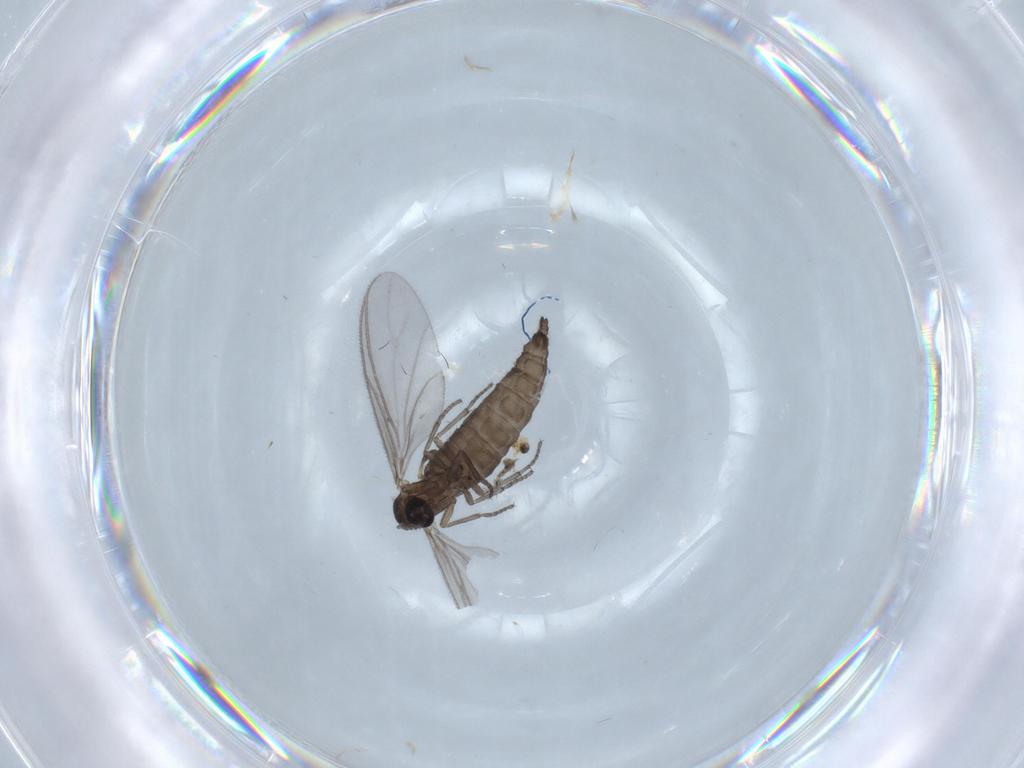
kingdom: Animalia
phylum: Arthropoda
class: Insecta
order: Diptera
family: Sciaridae
